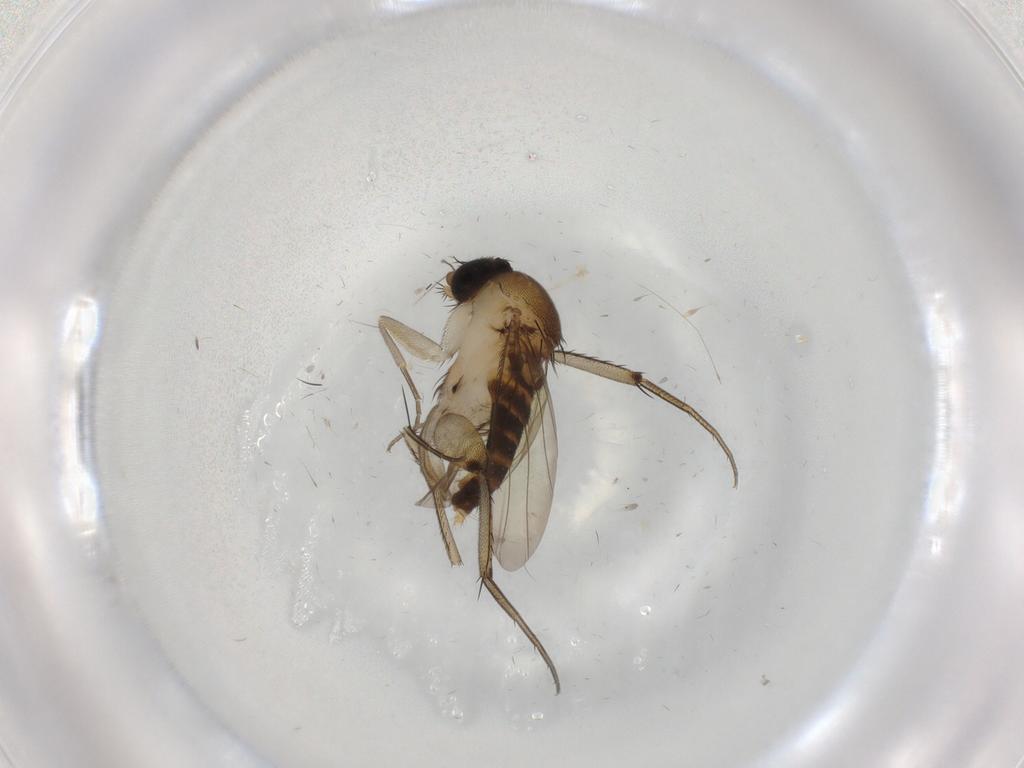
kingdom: Animalia
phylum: Arthropoda
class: Insecta
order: Diptera
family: Phoridae
